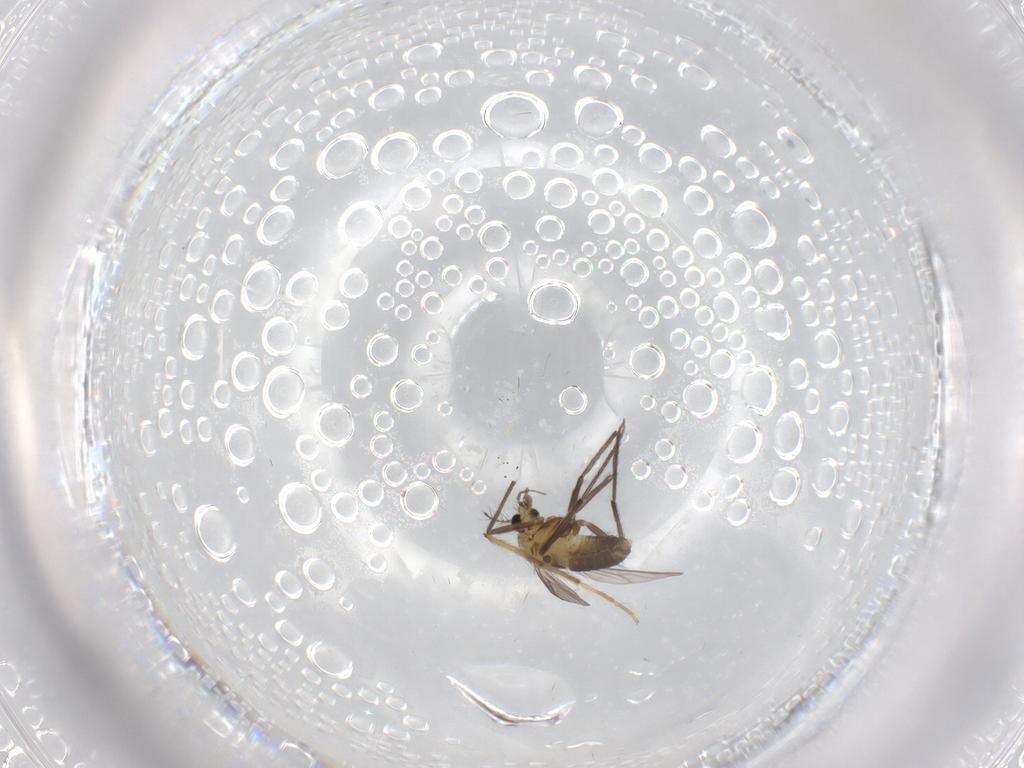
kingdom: Animalia
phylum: Arthropoda
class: Insecta
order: Diptera
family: Chironomidae
